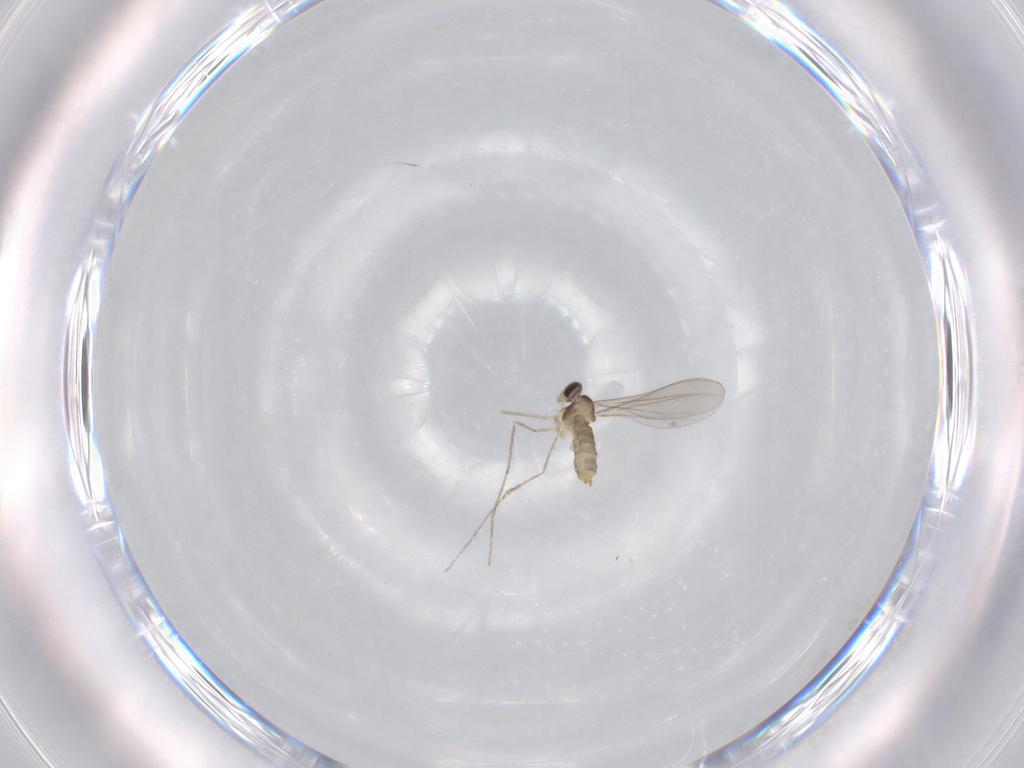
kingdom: Animalia
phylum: Arthropoda
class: Insecta
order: Diptera
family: Cecidomyiidae
